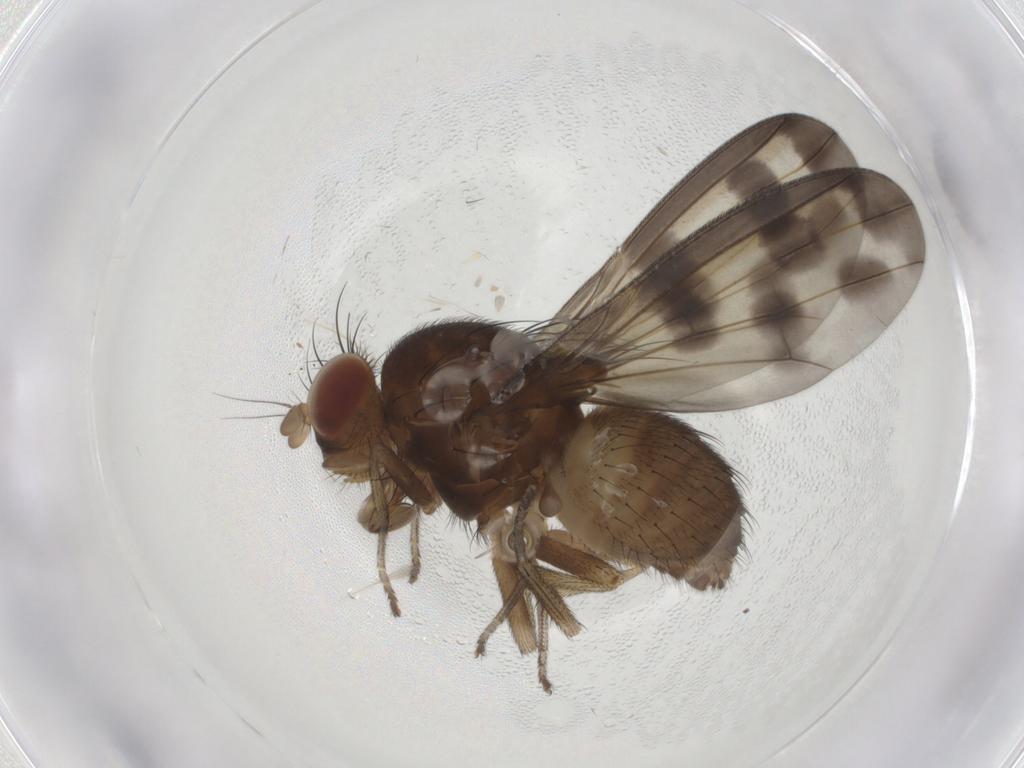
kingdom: Animalia
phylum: Arthropoda
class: Insecta
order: Diptera
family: Lauxaniidae
